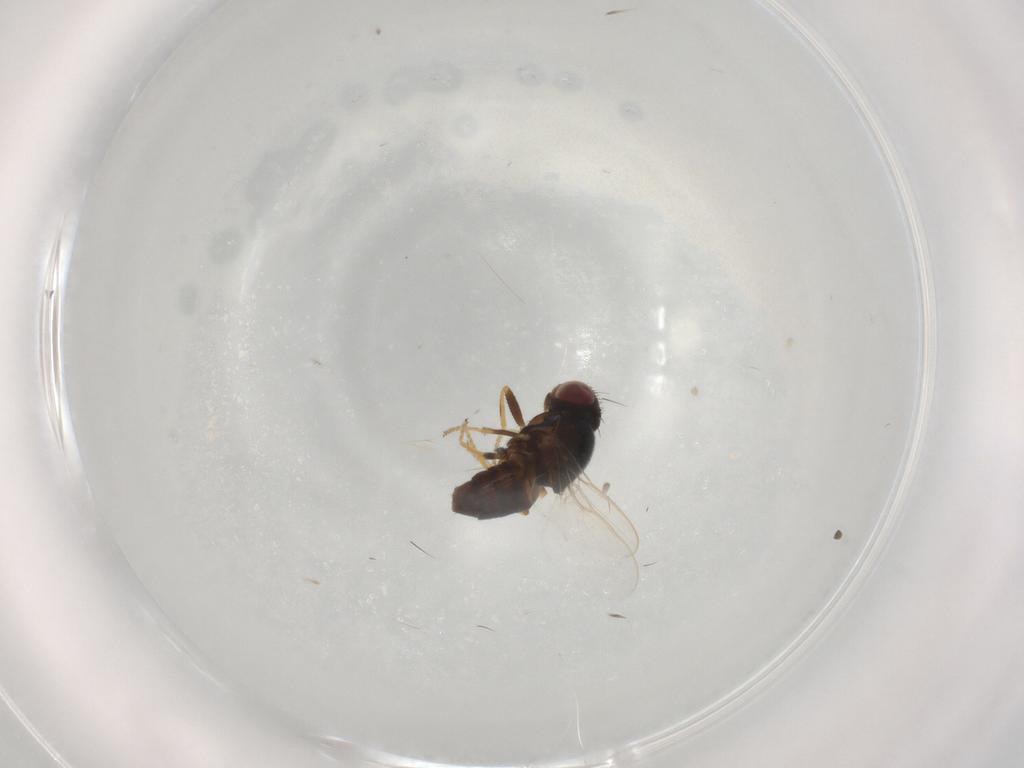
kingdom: Animalia
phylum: Arthropoda
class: Insecta
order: Diptera
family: Chloropidae
